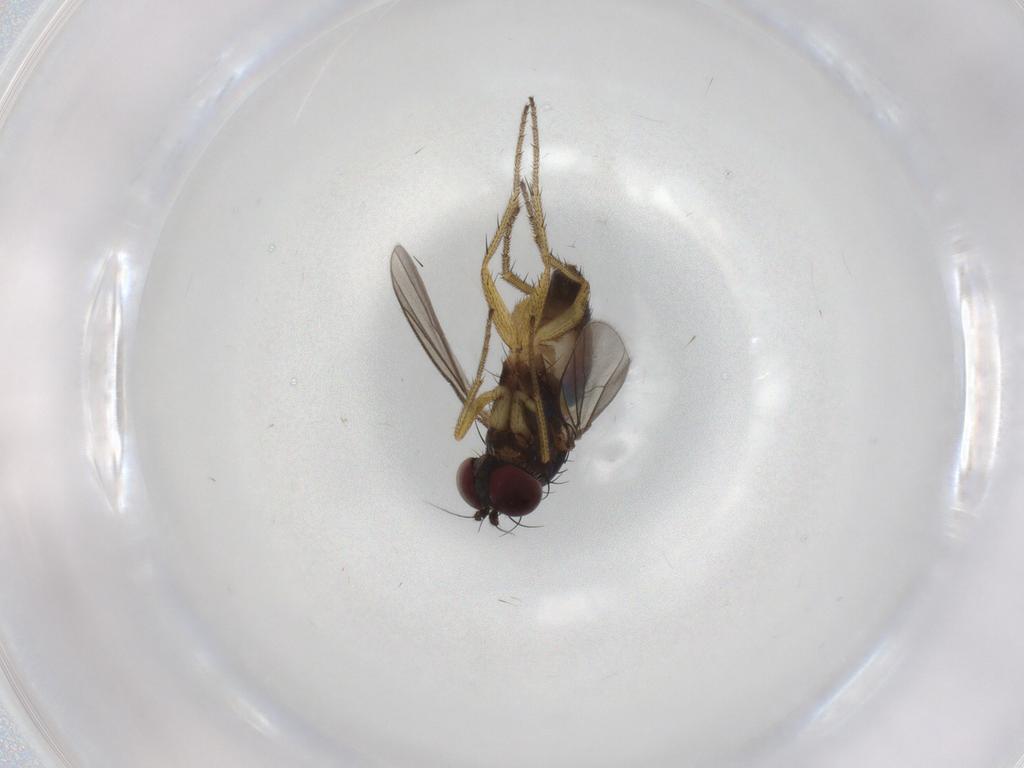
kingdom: Animalia
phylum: Arthropoda
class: Insecta
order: Diptera
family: Dolichopodidae
